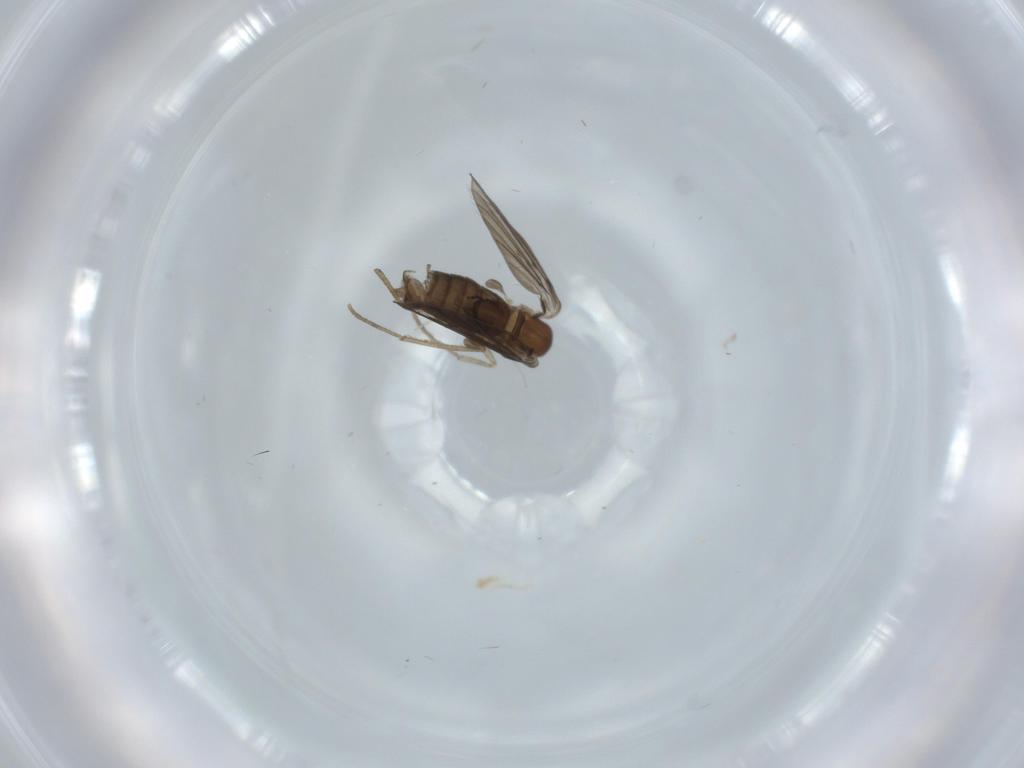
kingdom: Animalia
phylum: Arthropoda
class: Insecta
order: Diptera
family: Cecidomyiidae
